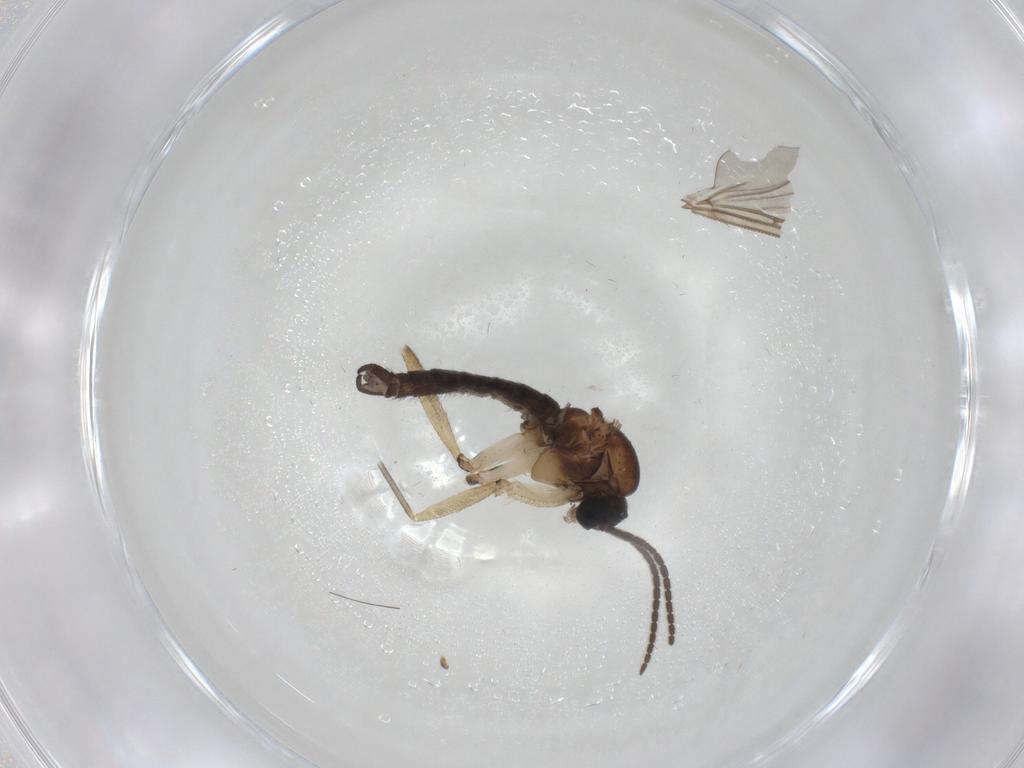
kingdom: Animalia
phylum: Arthropoda
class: Insecta
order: Diptera
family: Sciaridae
